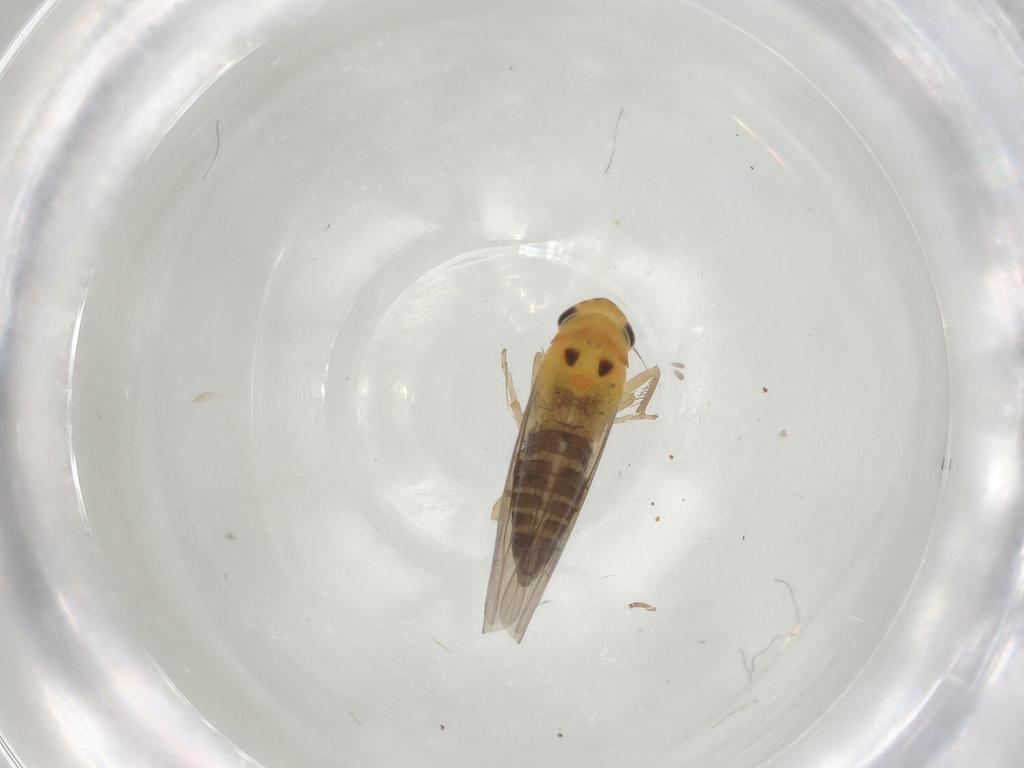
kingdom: Animalia
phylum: Arthropoda
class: Insecta
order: Hemiptera
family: Cicadellidae
